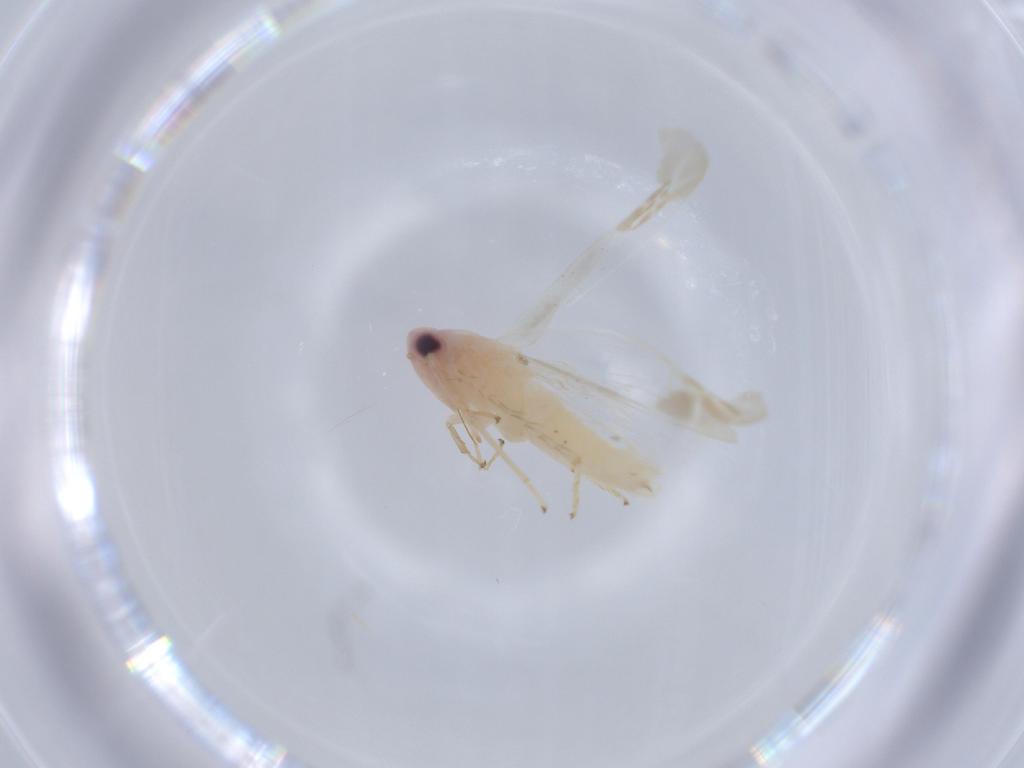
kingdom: Animalia
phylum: Arthropoda
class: Insecta
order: Hemiptera
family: Cicadellidae
